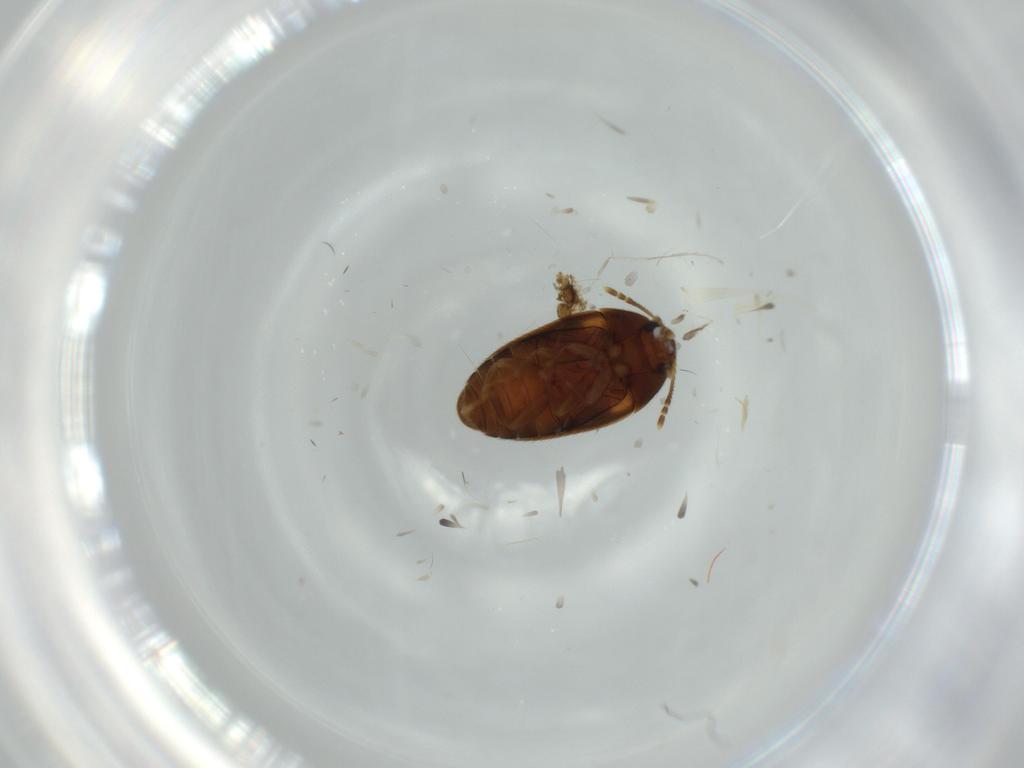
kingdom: Animalia
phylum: Arthropoda
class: Insecta
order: Coleoptera
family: Mycetophagidae
